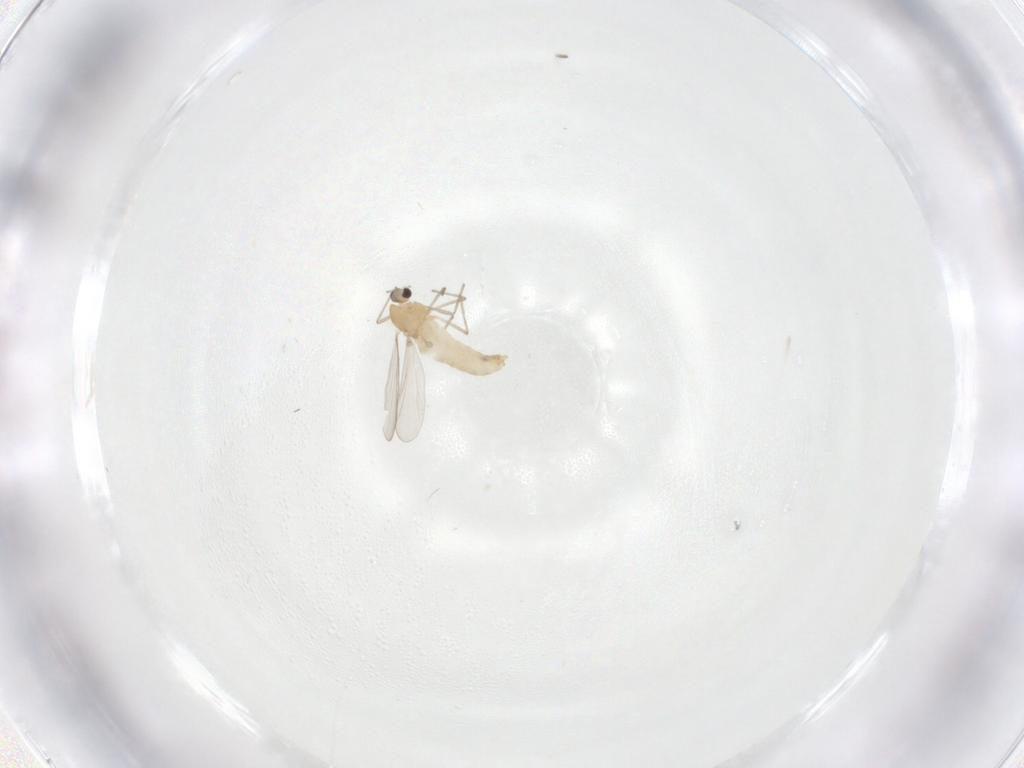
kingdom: Animalia
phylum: Arthropoda
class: Insecta
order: Diptera
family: Chironomidae
